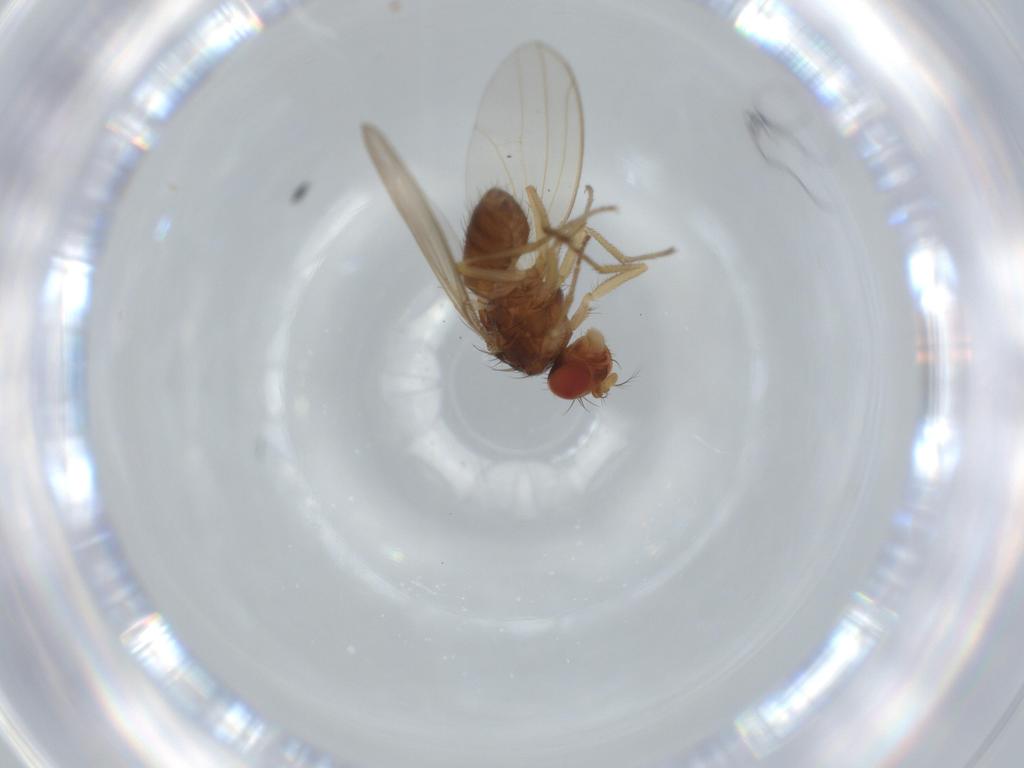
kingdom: Animalia
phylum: Arthropoda
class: Insecta
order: Diptera
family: Drosophilidae
